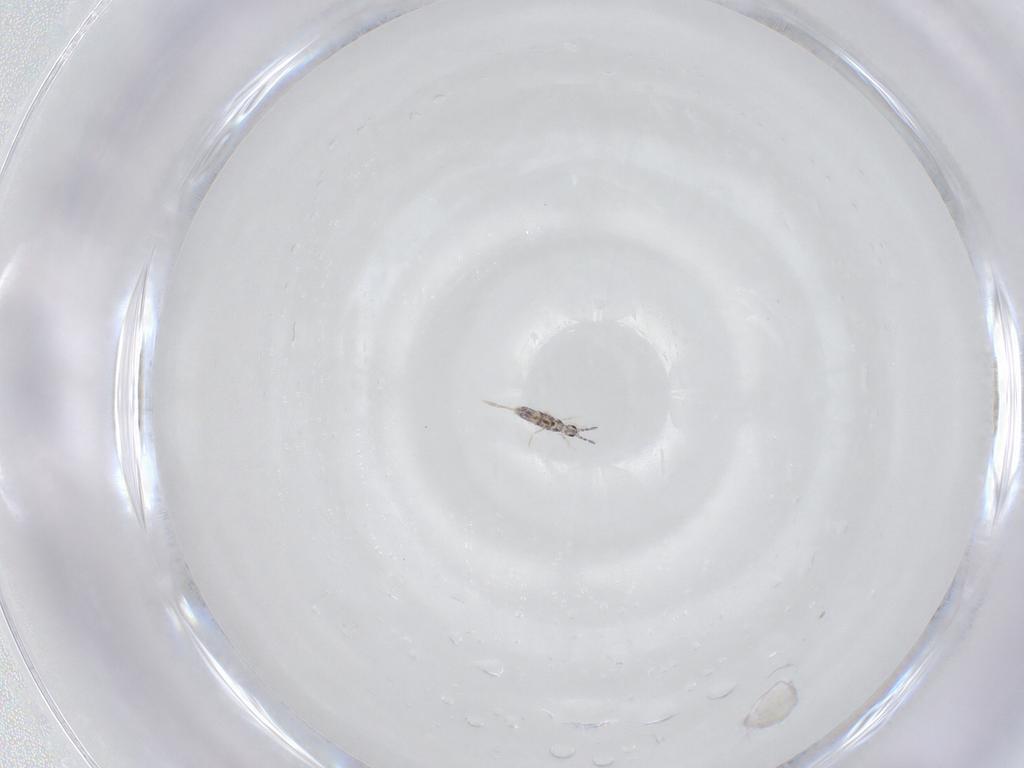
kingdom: Animalia
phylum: Arthropoda
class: Collembola
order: Entomobryomorpha
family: Entomobryidae
